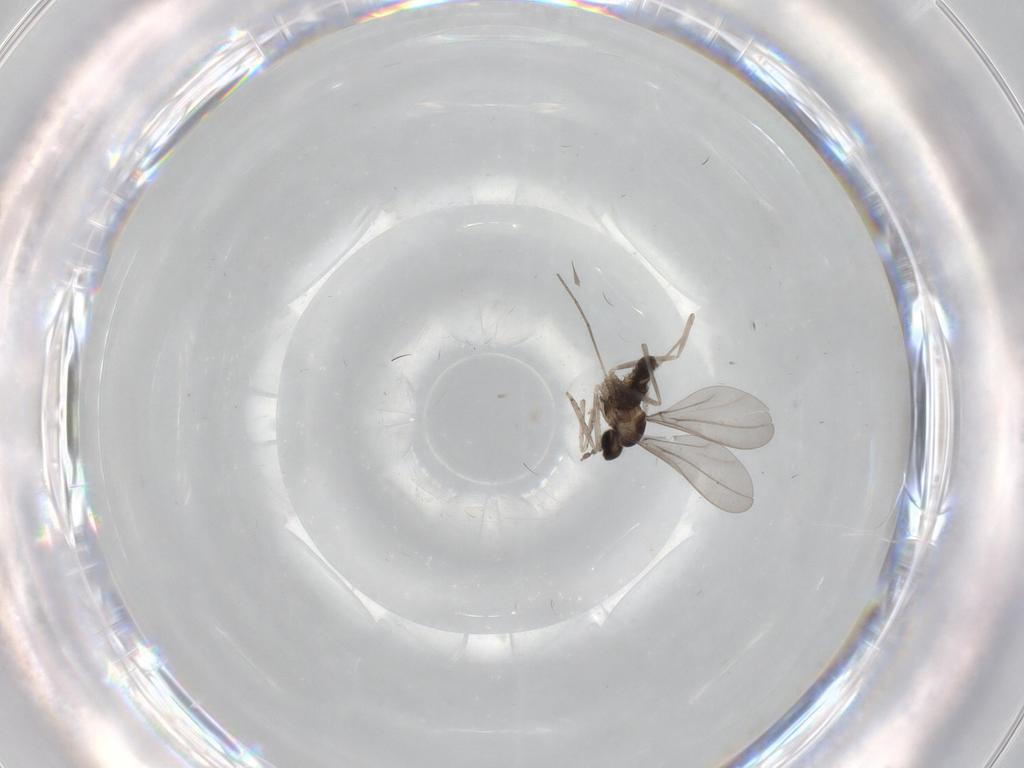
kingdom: Animalia
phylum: Arthropoda
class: Insecta
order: Diptera
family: Cecidomyiidae
